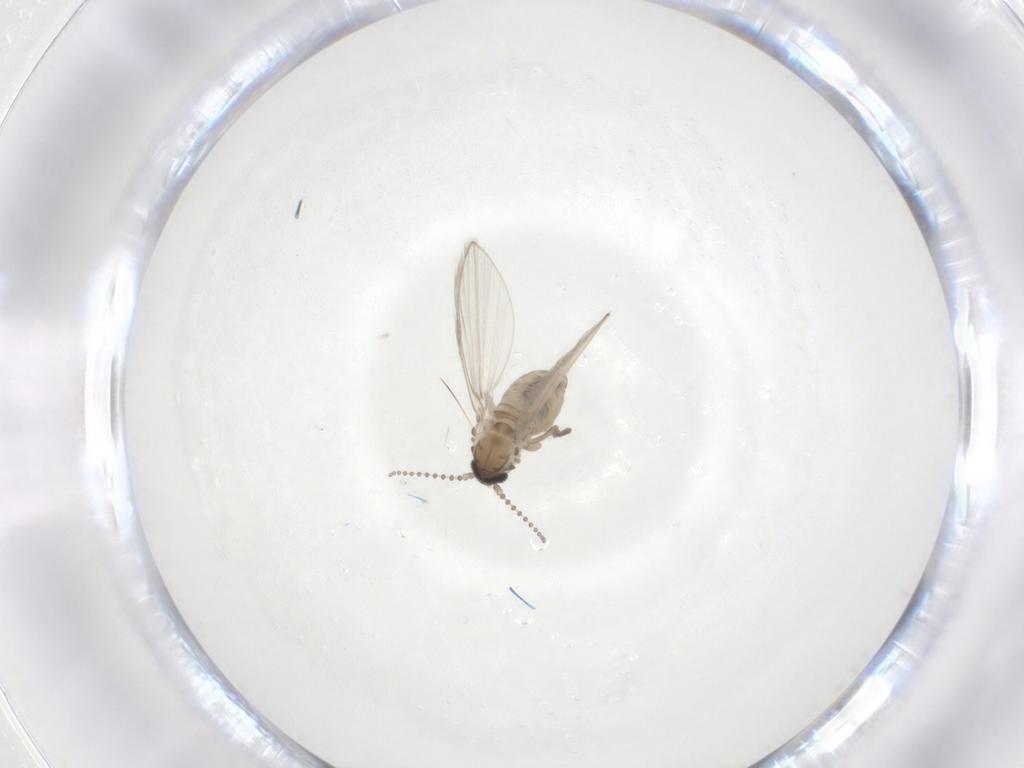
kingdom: Animalia
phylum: Arthropoda
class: Insecta
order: Diptera
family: Psychodidae
